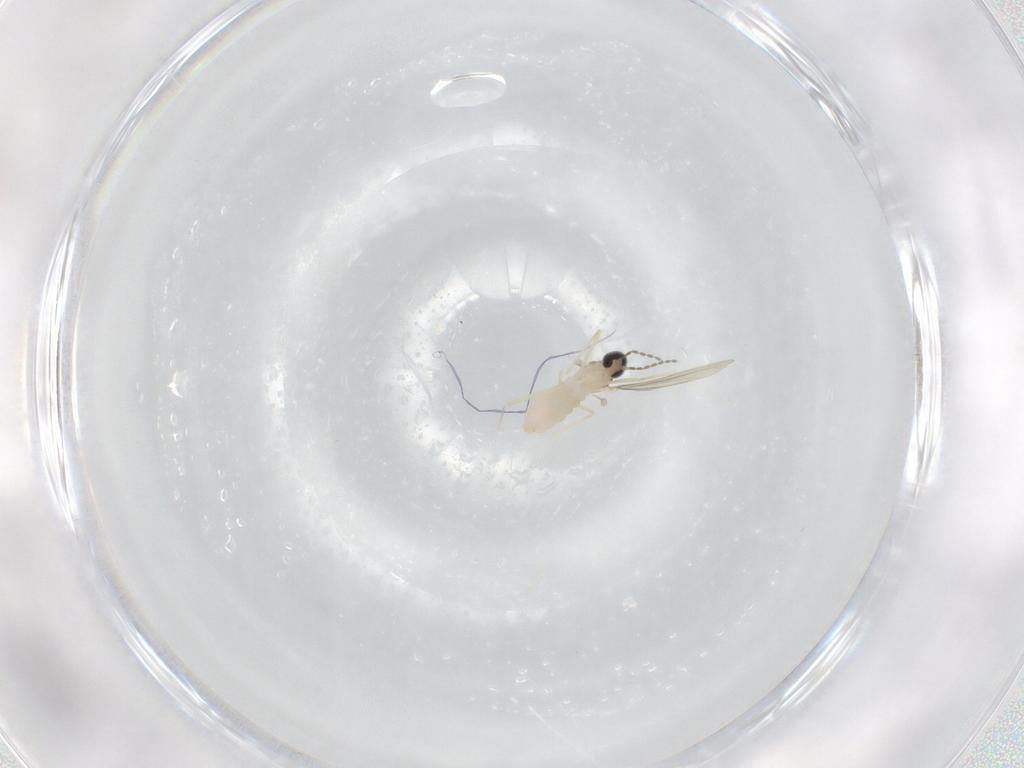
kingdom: Animalia
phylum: Arthropoda
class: Insecta
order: Diptera
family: Cecidomyiidae
